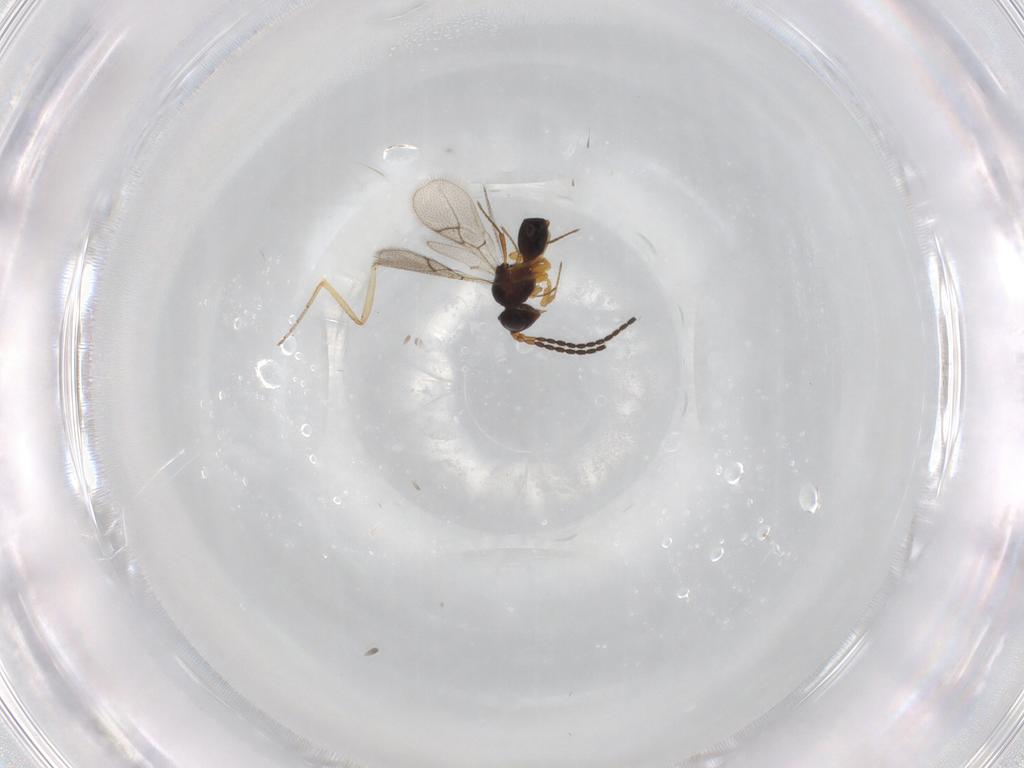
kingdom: Animalia
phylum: Arthropoda
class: Insecta
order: Hymenoptera
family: Figitidae
